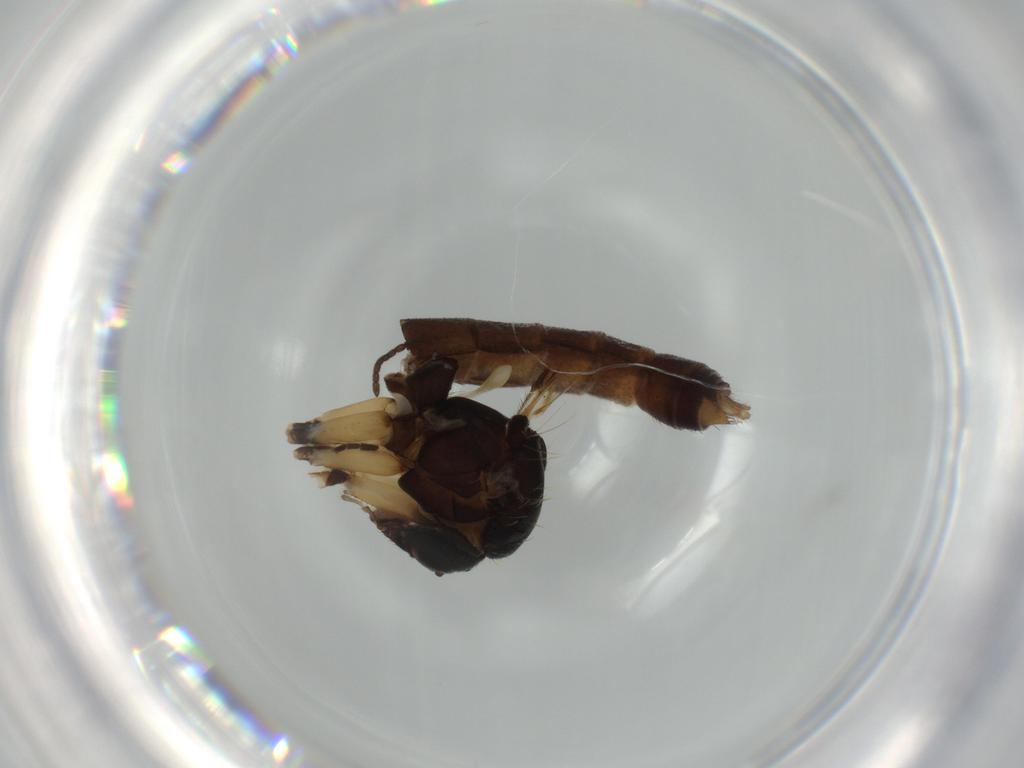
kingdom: Animalia
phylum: Arthropoda
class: Insecta
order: Diptera
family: Mycetophilidae
